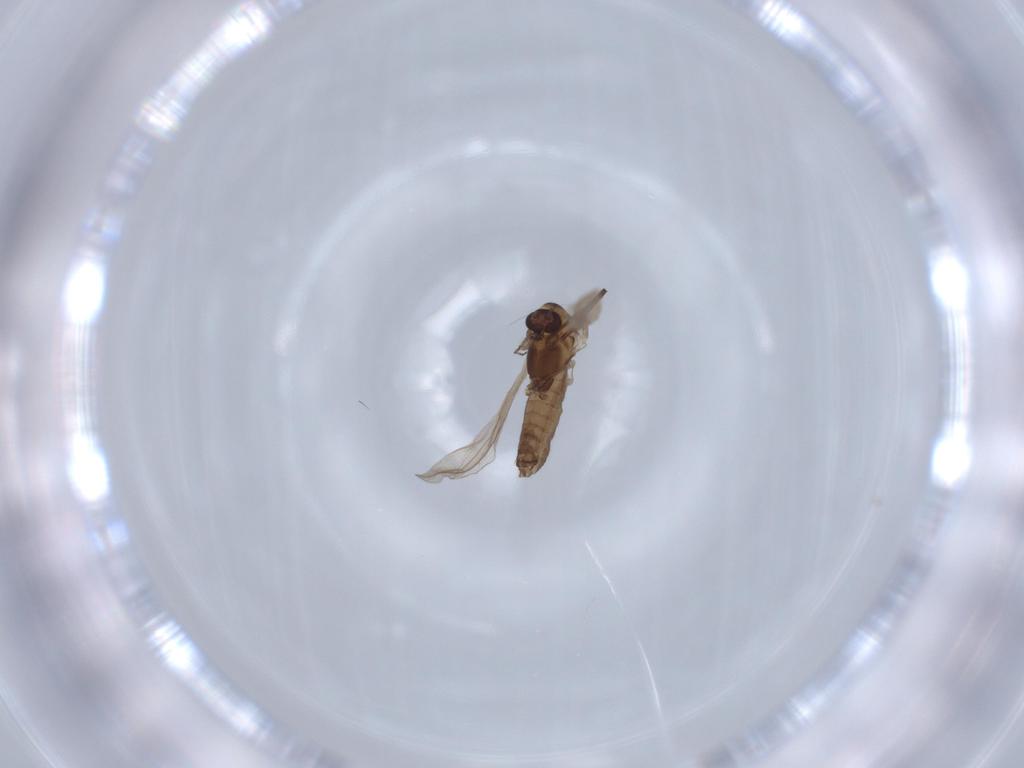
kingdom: Animalia
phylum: Arthropoda
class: Insecta
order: Diptera
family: Chironomidae
